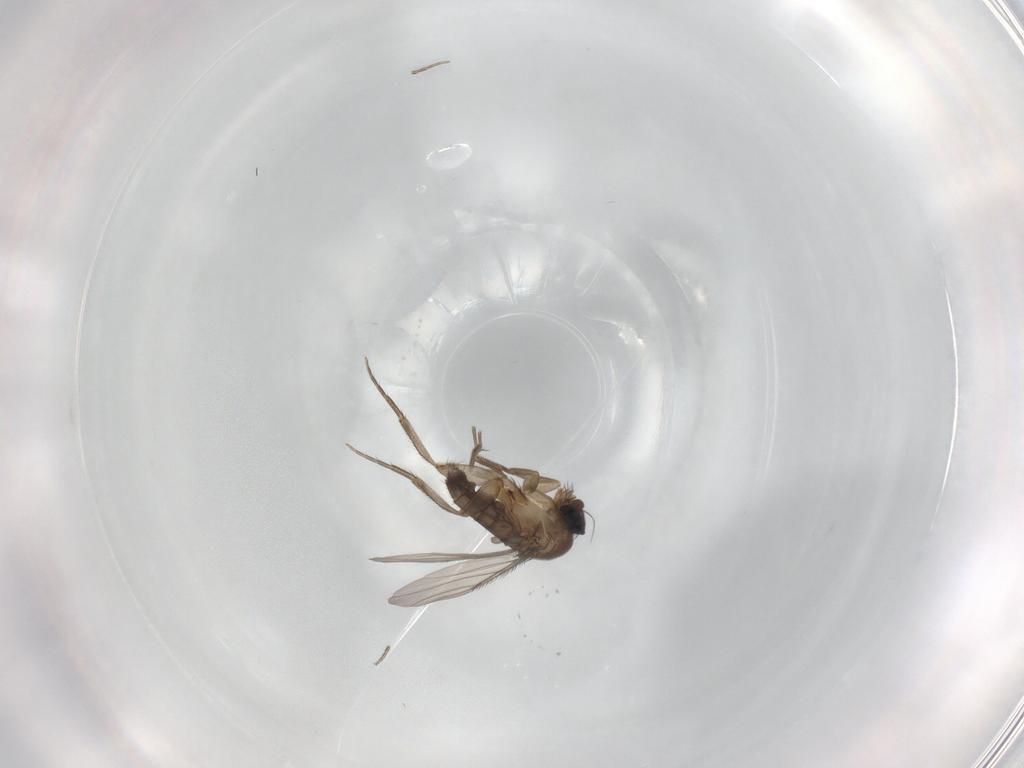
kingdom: Animalia
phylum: Arthropoda
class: Insecta
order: Diptera
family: Phoridae
